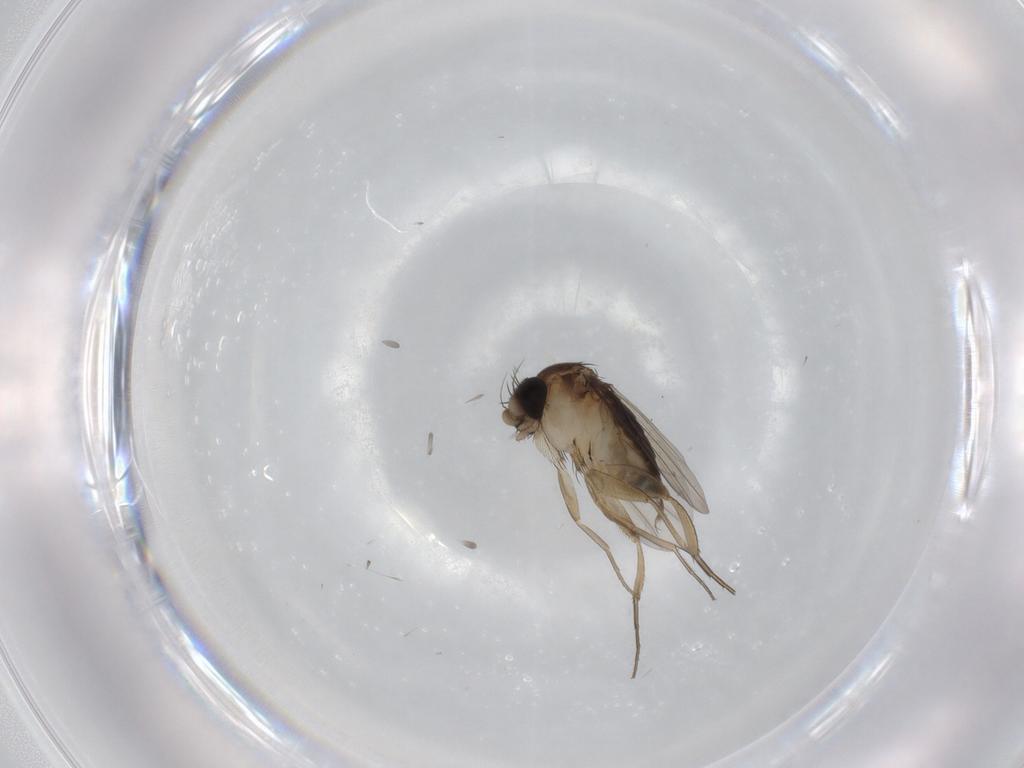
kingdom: Animalia
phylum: Arthropoda
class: Insecta
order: Diptera
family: Phoridae
